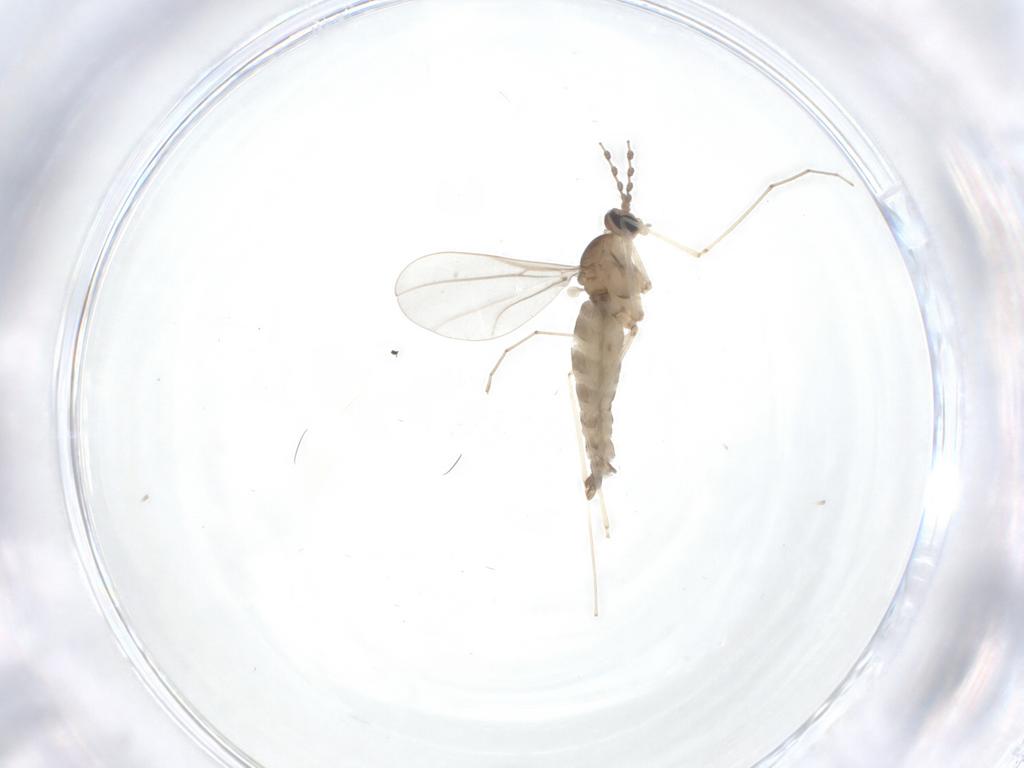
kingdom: Animalia
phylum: Arthropoda
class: Insecta
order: Diptera
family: Cecidomyiidae
